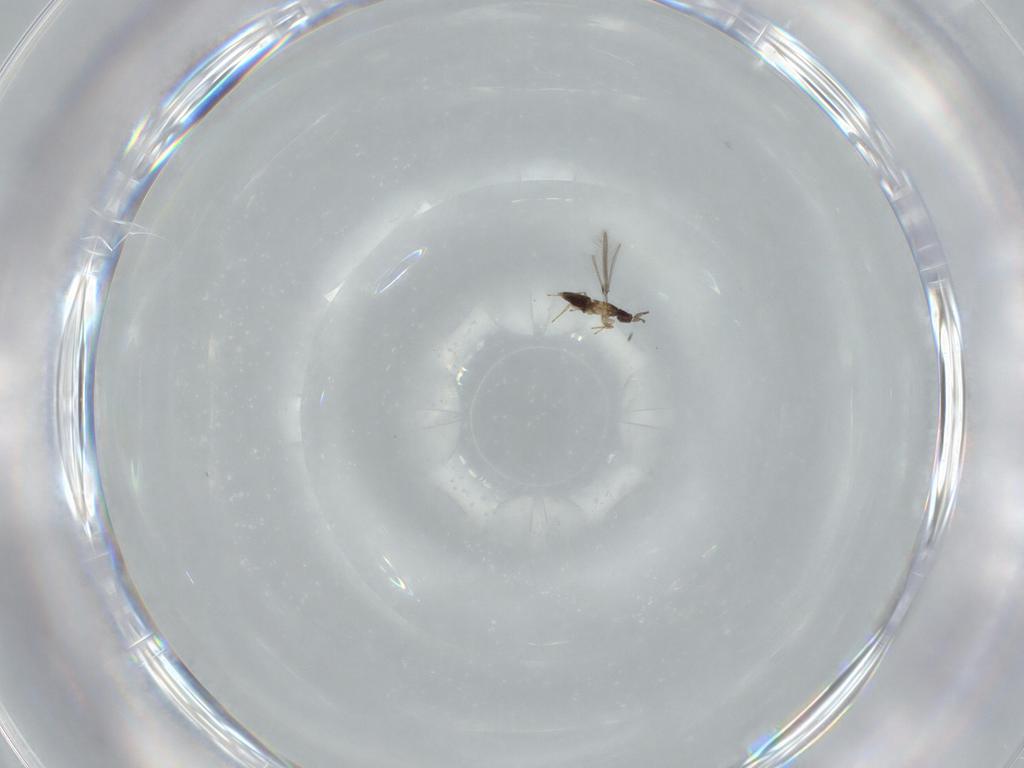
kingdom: Animalia
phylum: Arthropoda
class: Insecta
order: Hymenoptera
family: Mymaridae
